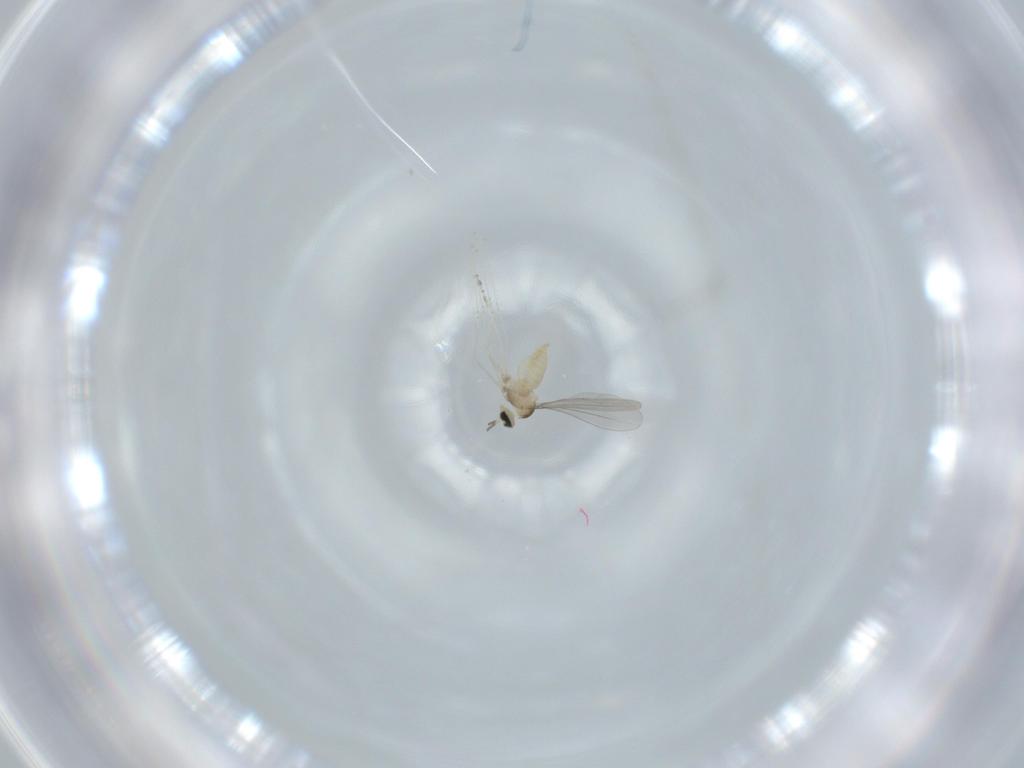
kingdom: Animalia
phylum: Arthropoda
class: Insecta
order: Diptera
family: Cecidomyiidae
